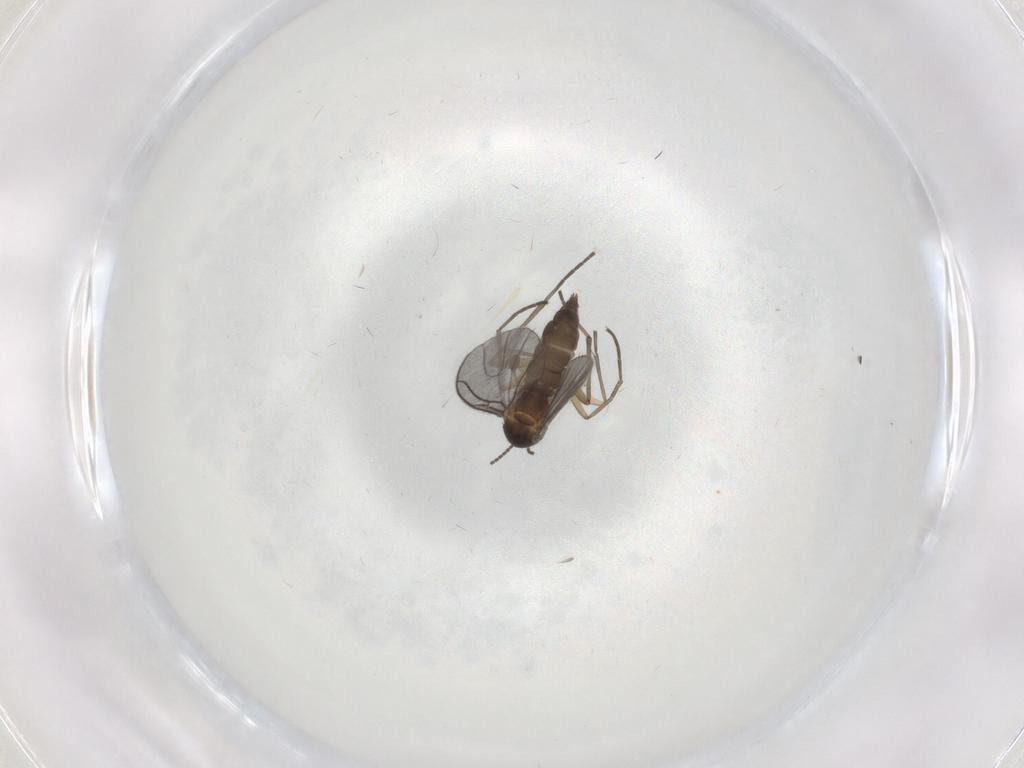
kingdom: Animalia
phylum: Arthropoda
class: Insecta
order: Diptera
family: Sciaridae
